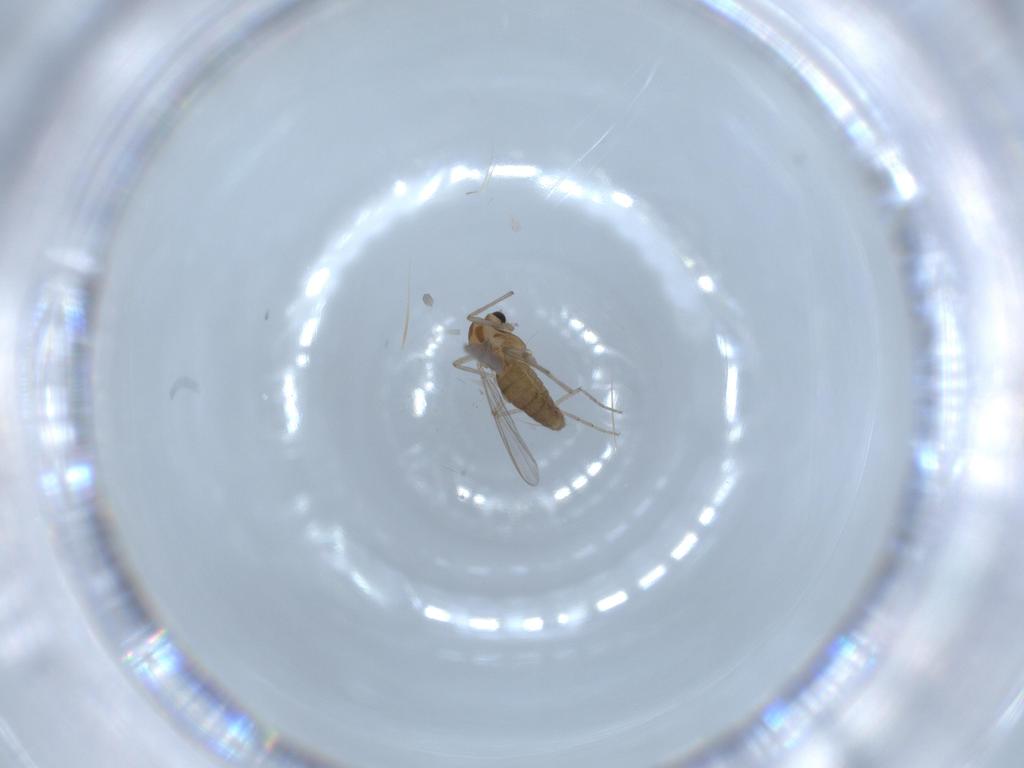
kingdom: Animalia
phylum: Arthropoda
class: Insecta
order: Diptera
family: Chironomidae
